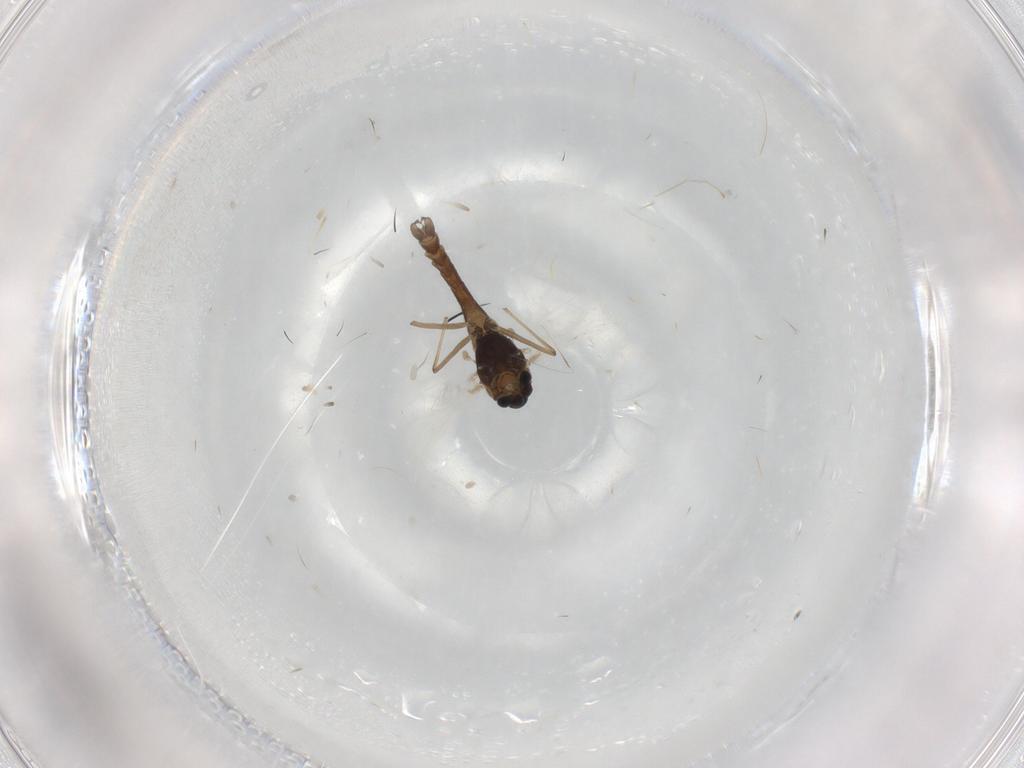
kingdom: Animalia
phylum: Arthropoda
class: Insecta
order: Diptera
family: Chironomidae
